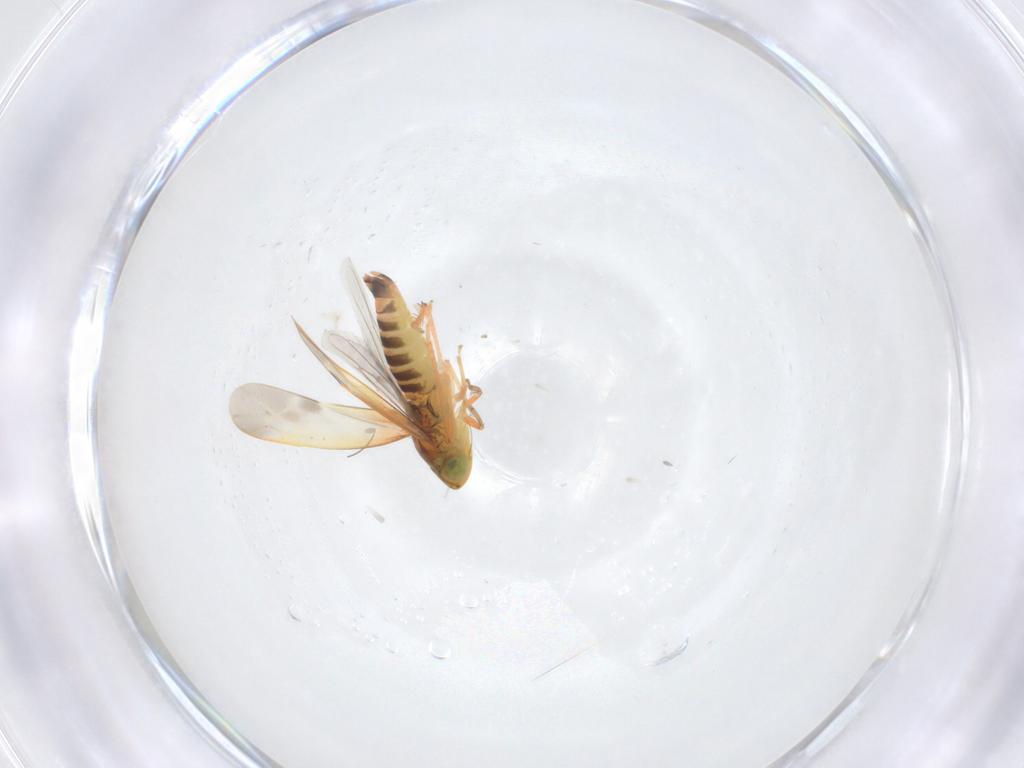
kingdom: Animalia
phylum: Arthropoda
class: Insecta
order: Hemiptera
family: Cicadellidae
